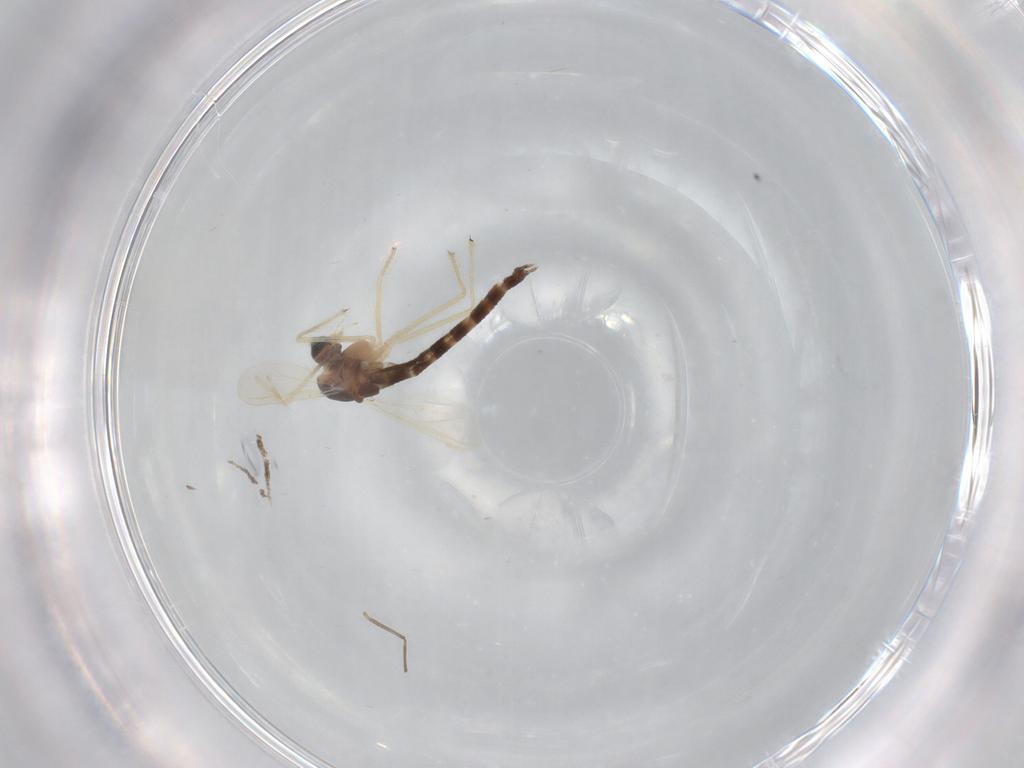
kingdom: Animalia
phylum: Arthropoda
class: Insecta
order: Diptera
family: Chironomidae
